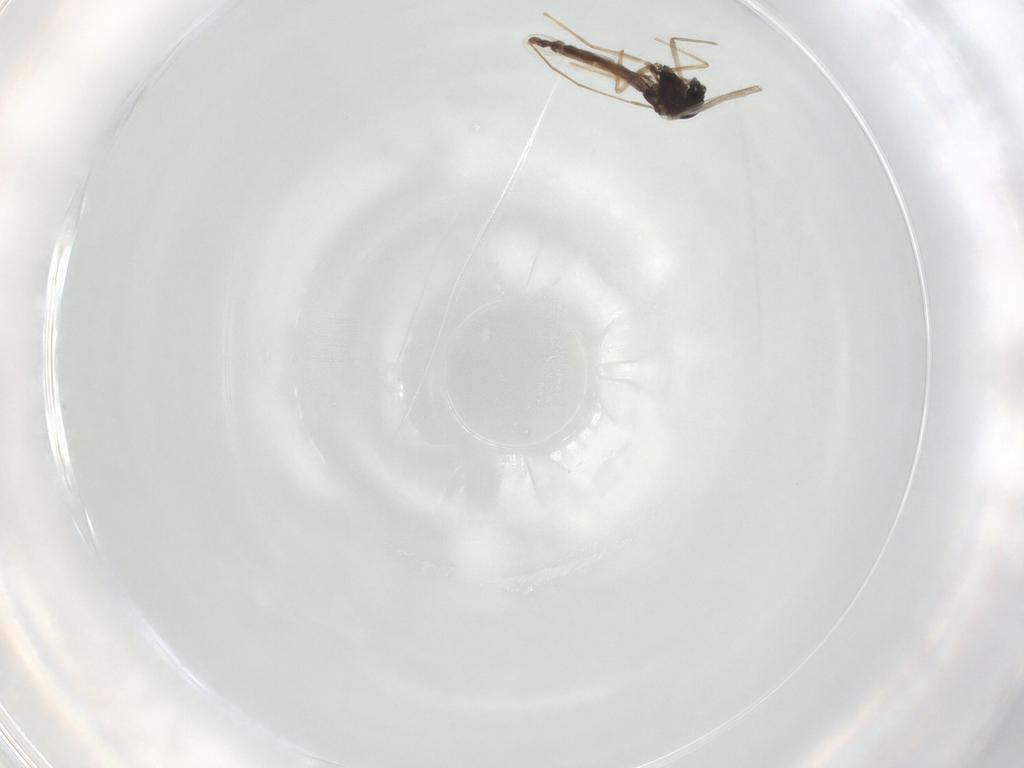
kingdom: Animalia
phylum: Arthropoda
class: Insecta
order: Diptera
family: Chironomidae
